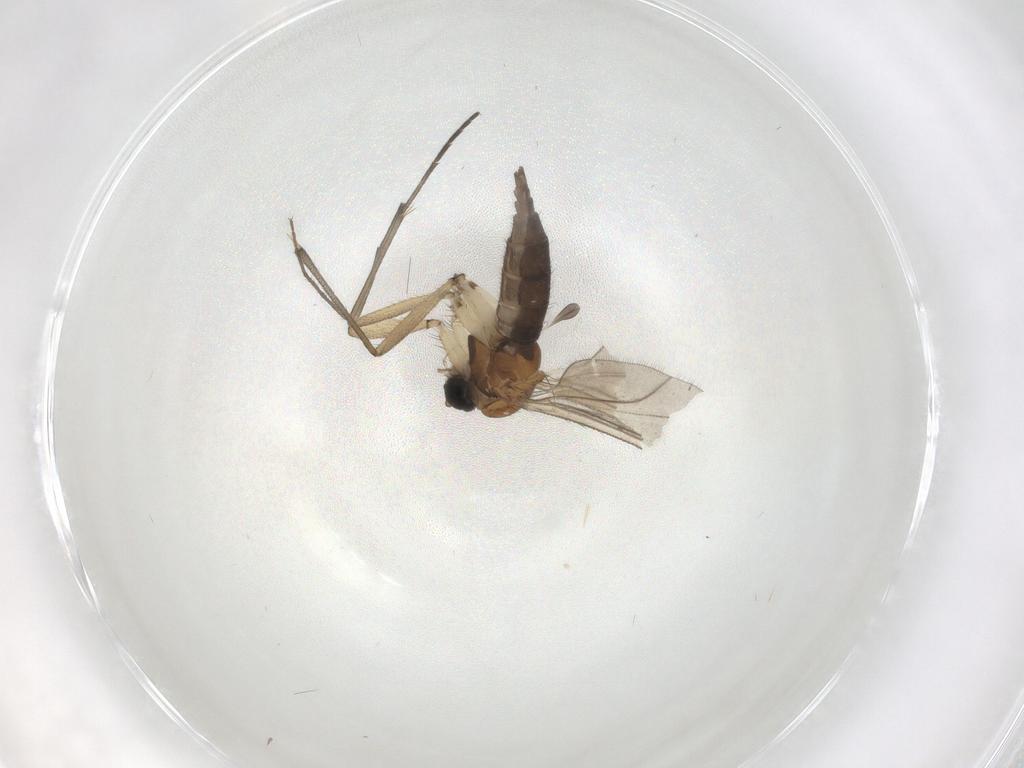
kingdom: Animalia
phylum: Arthropoda
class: Insecta
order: Diptera
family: Sciaridae
